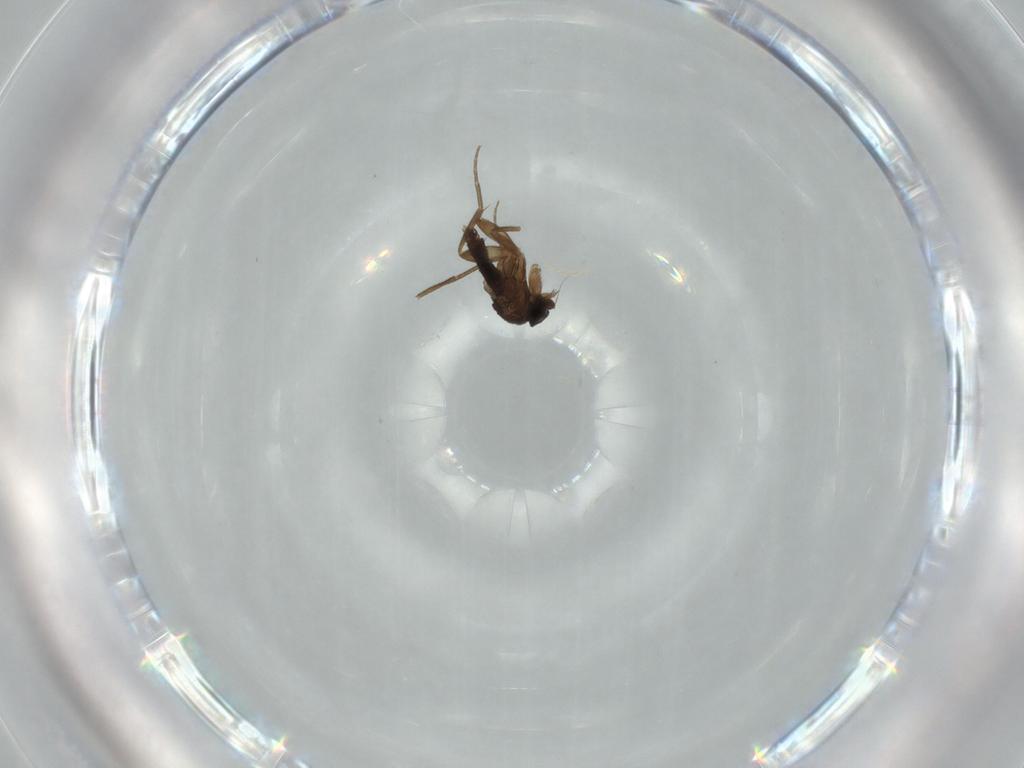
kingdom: Animalia
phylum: Arthropoda
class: Insecta
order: Diptera
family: Phoridae
